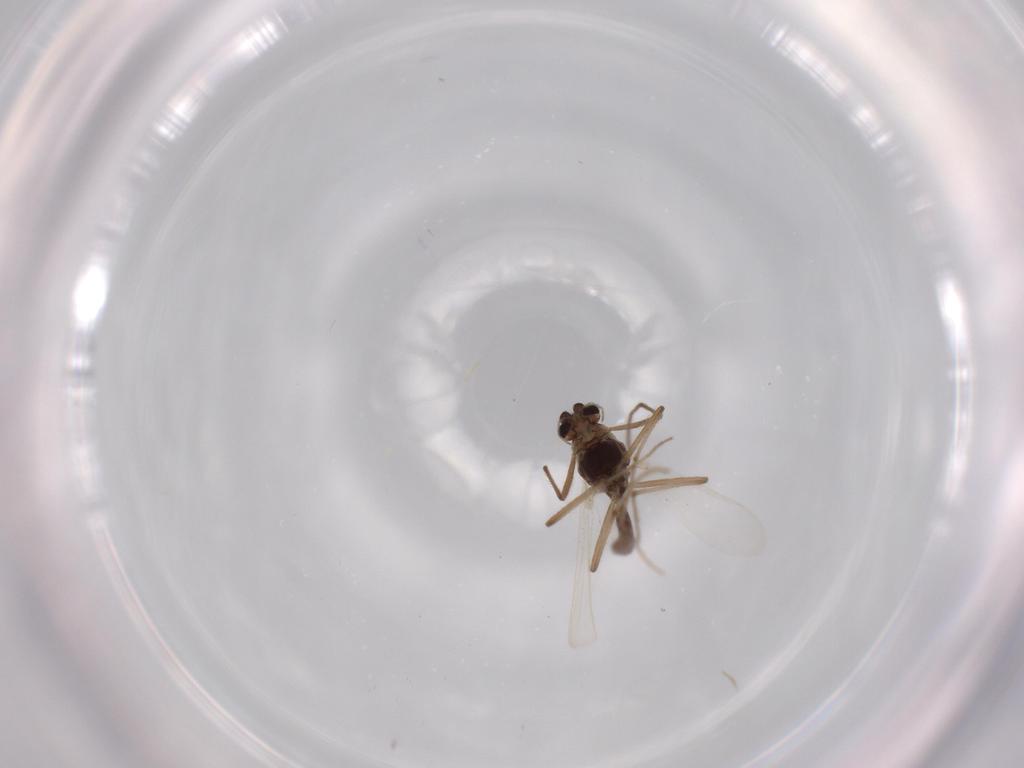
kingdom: Animalia
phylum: Arthropoda
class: Insecta
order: Diptera
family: Chironomidae
